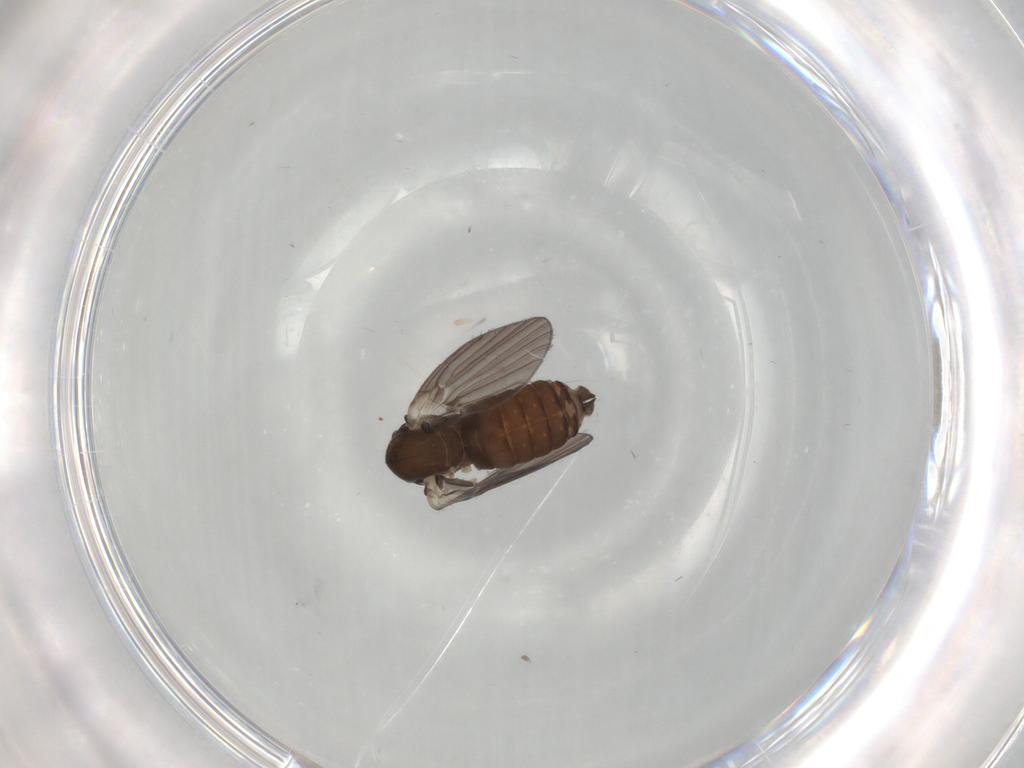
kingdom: Animalia
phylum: Arthropoda
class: Insecta
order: Diptera
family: Psychodidae
